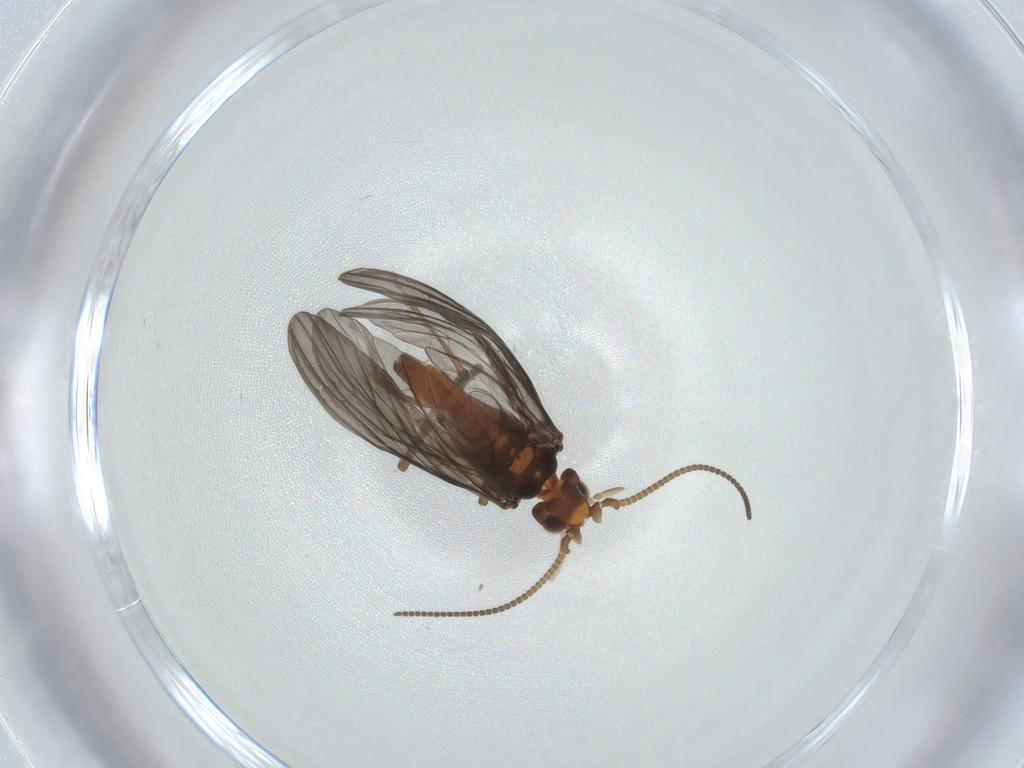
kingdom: Animalia
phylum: Arthropoda
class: Insecta
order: Neuroptera
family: Coniopterygidae
